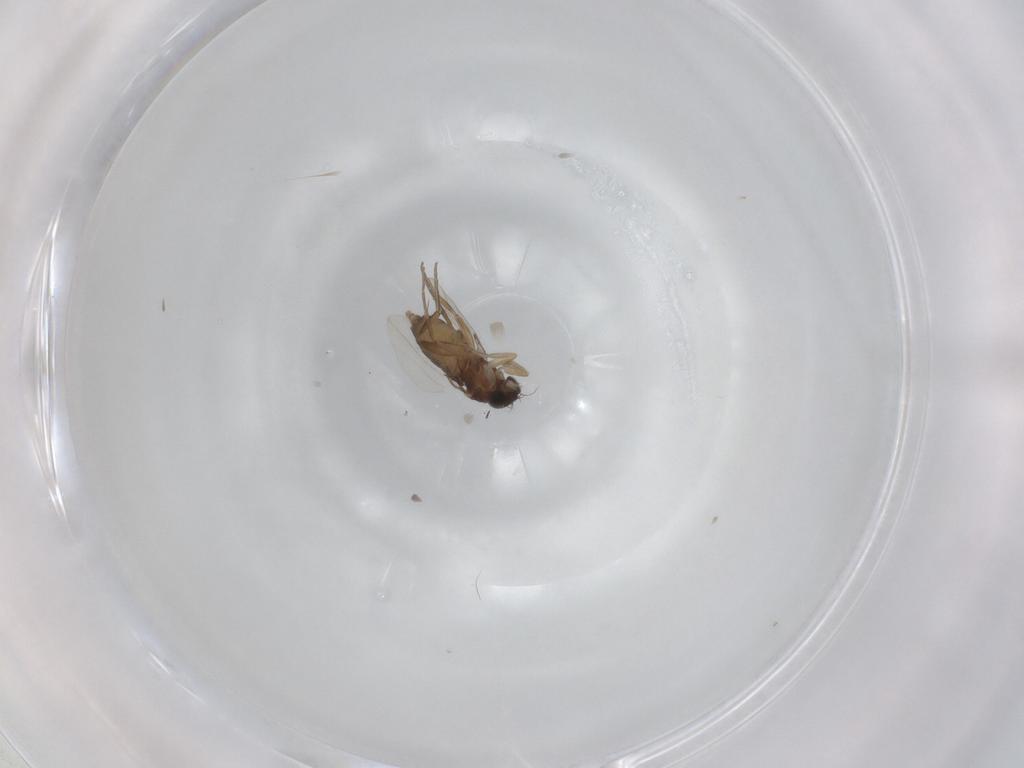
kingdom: Animalia
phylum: Arthropoda
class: Insecta
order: Diptera
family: Phoridae
